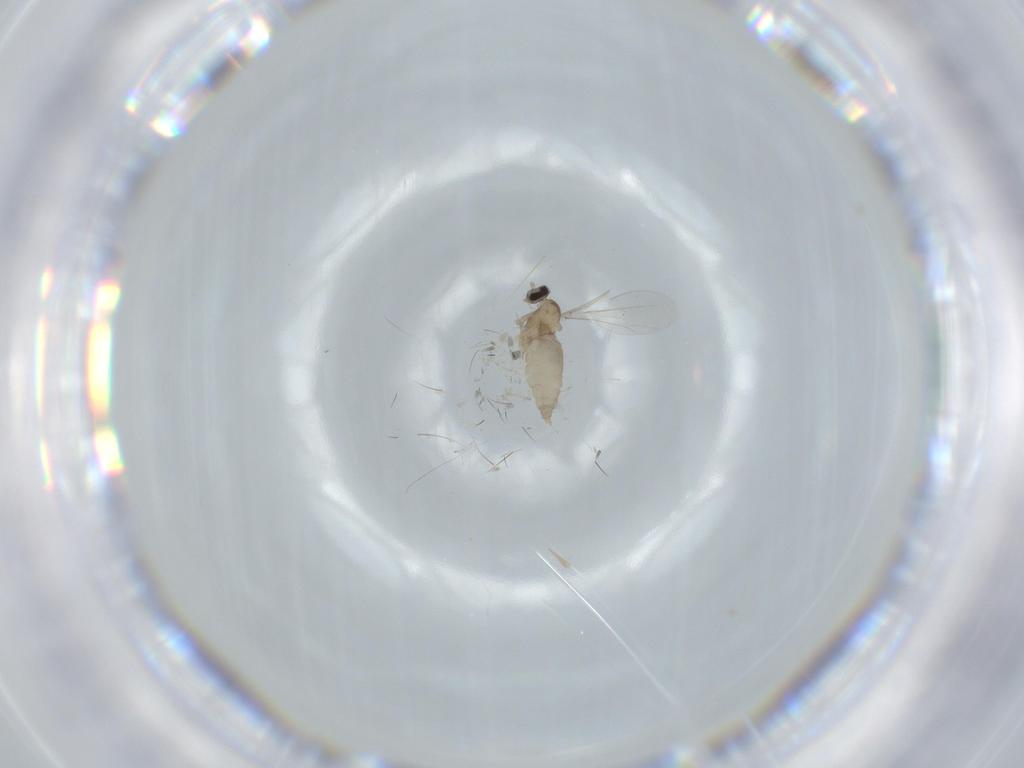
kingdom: Animalia
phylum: Arthropoda
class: Insecta
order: Diptera
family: Cecidomyiidae
